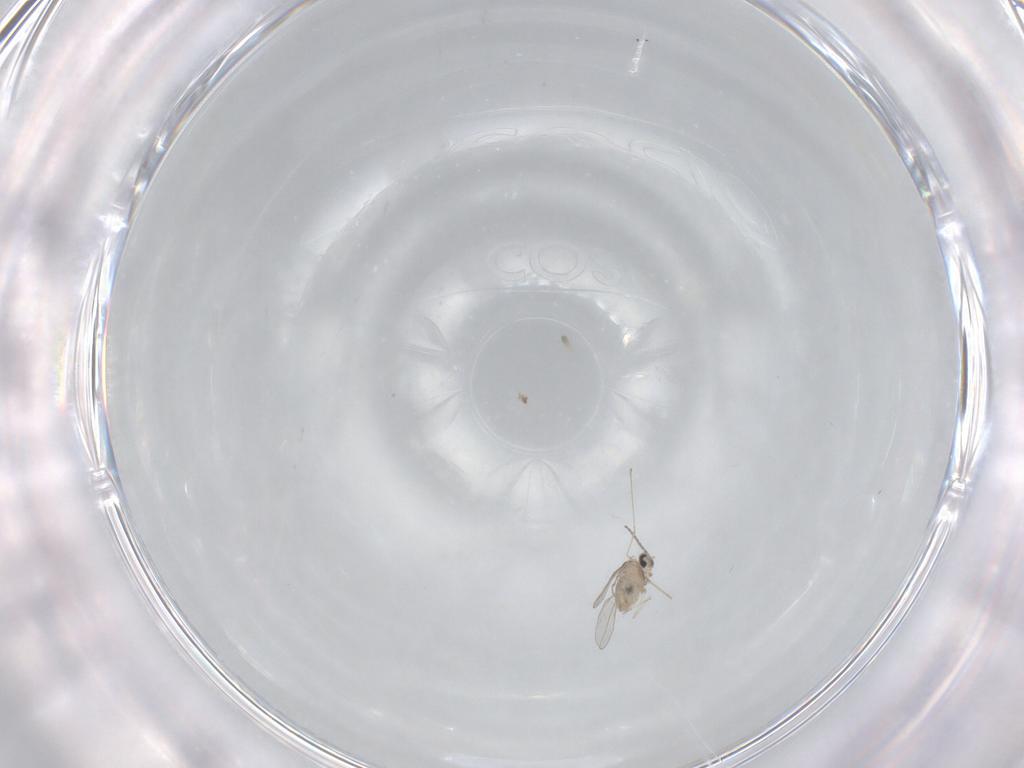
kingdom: Animalia
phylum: Arthropoda
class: Insecta
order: Diptera
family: Cecidomyiidae
